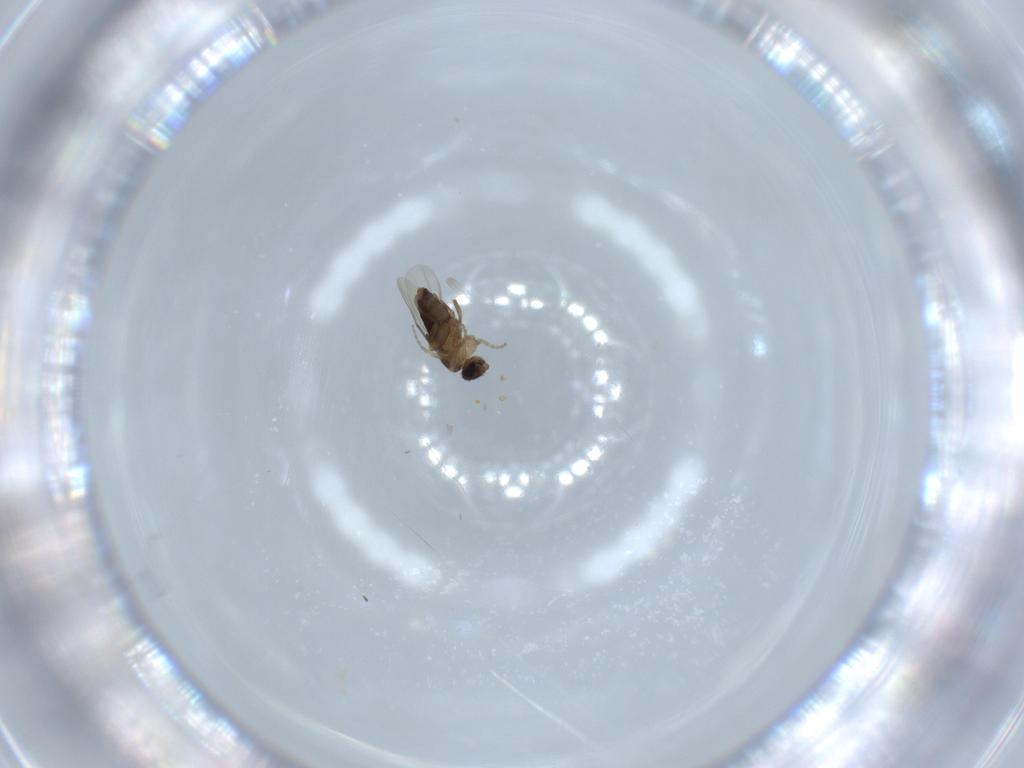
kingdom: Animalia
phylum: Arthropoda
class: Insecta
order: Diptera
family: Phoridae
